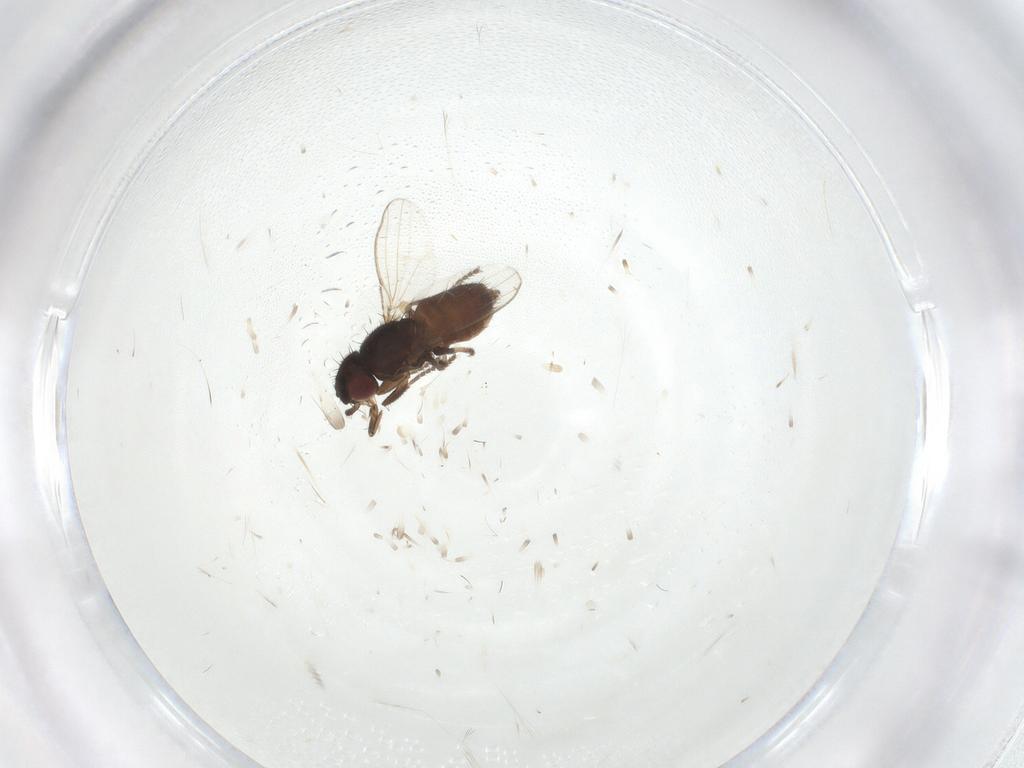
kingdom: Animalia
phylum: Arthropoda
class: Insecta
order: Diptera
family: Milichiidae
